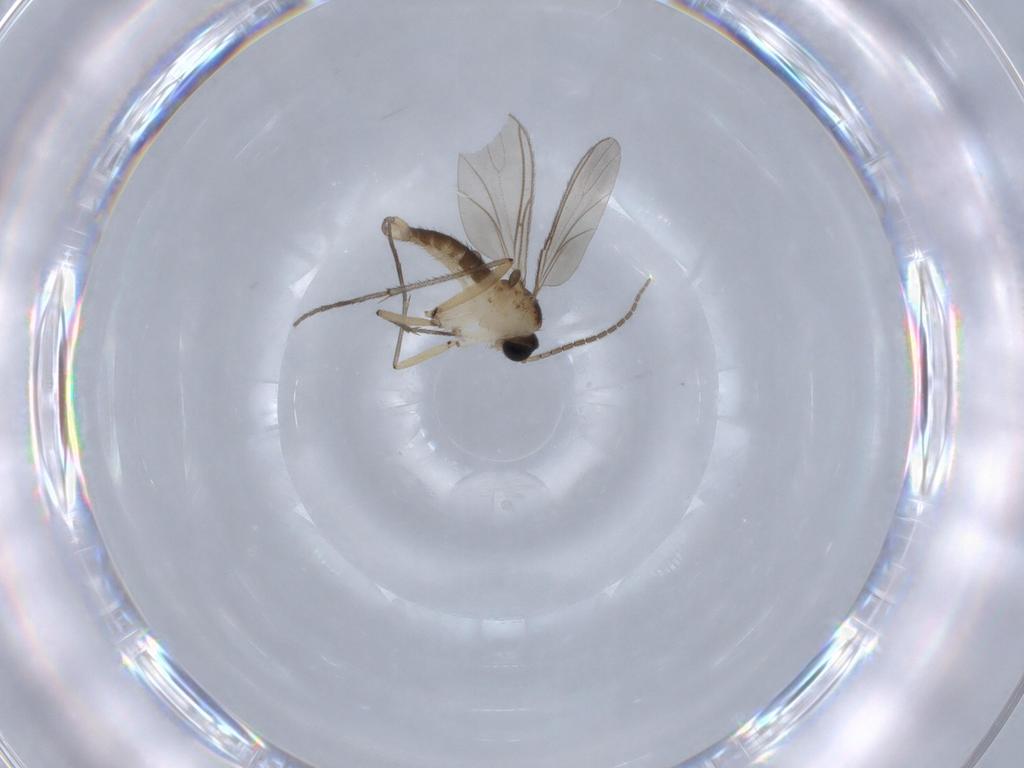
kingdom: Animalia
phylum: Arthropoda
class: Insecta
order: Diptera
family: Sciaridae
